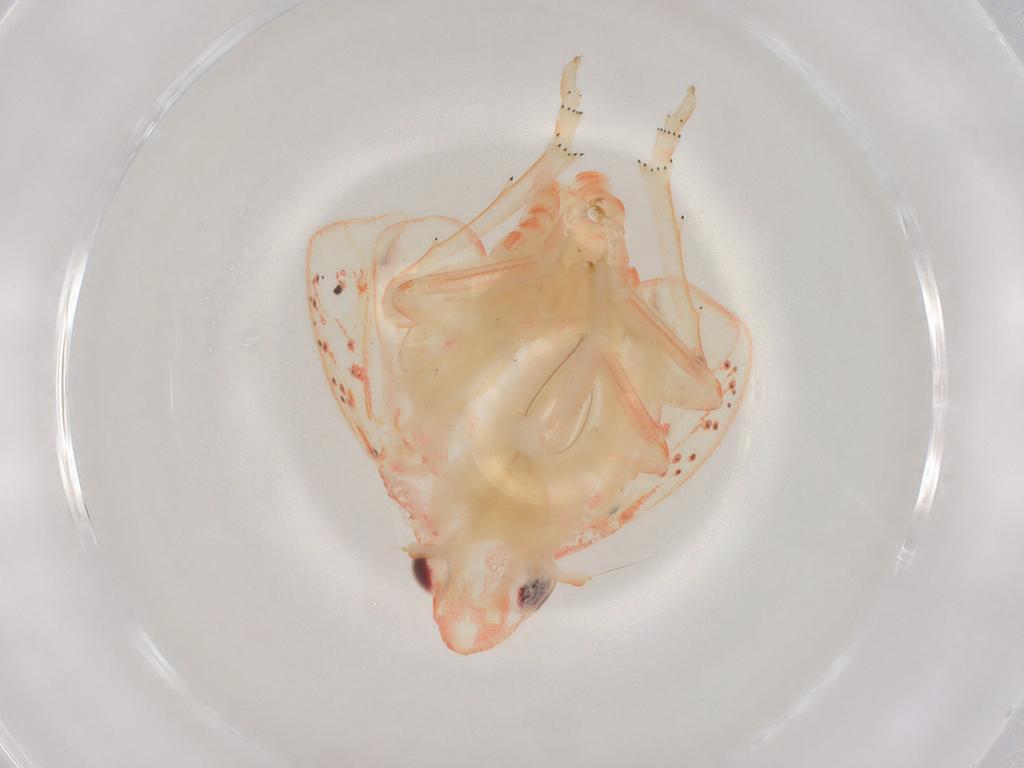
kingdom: Animalia
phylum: Arthropoda
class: Insecta
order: Hemiptera
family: Flatidae
